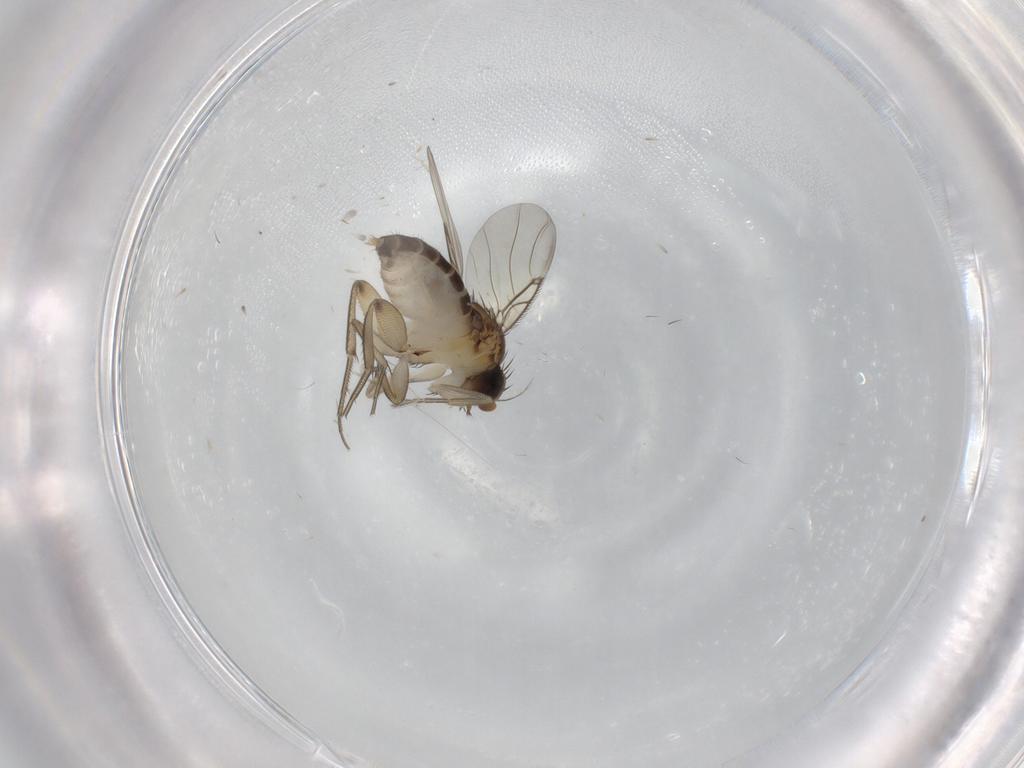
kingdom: Animalia
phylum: Arthropoda
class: Insecta
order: Diptera
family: Phoridae
